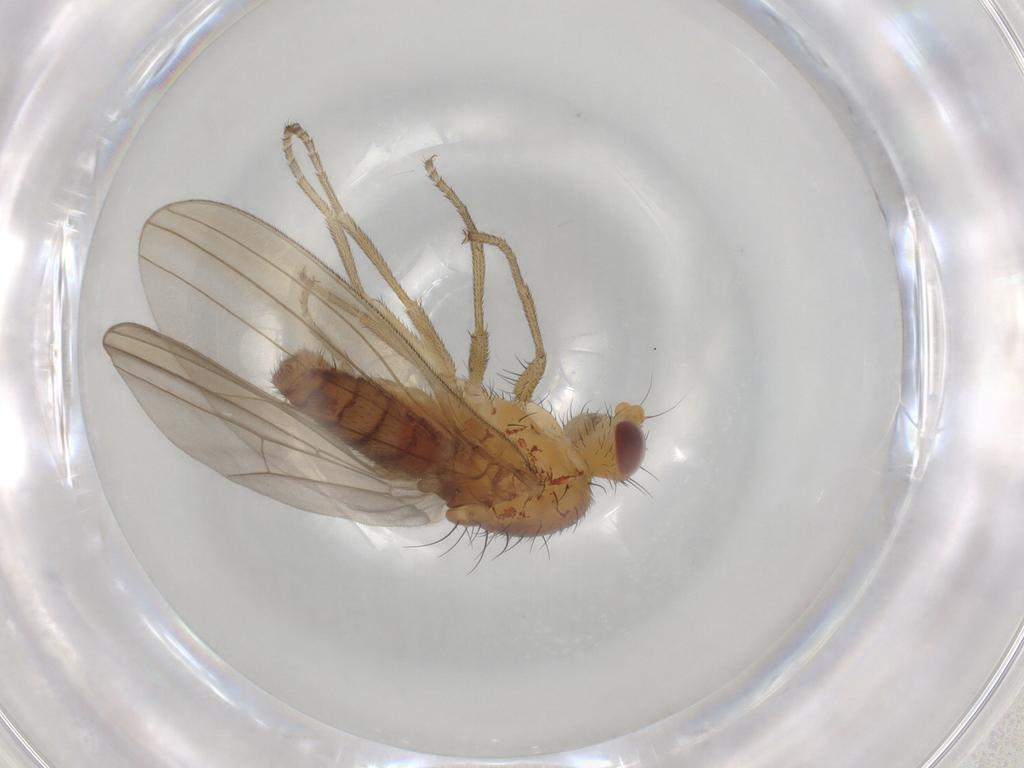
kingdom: Animalia
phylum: Arthropoda
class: Insecta
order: Diptera
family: Natalimyzidae
